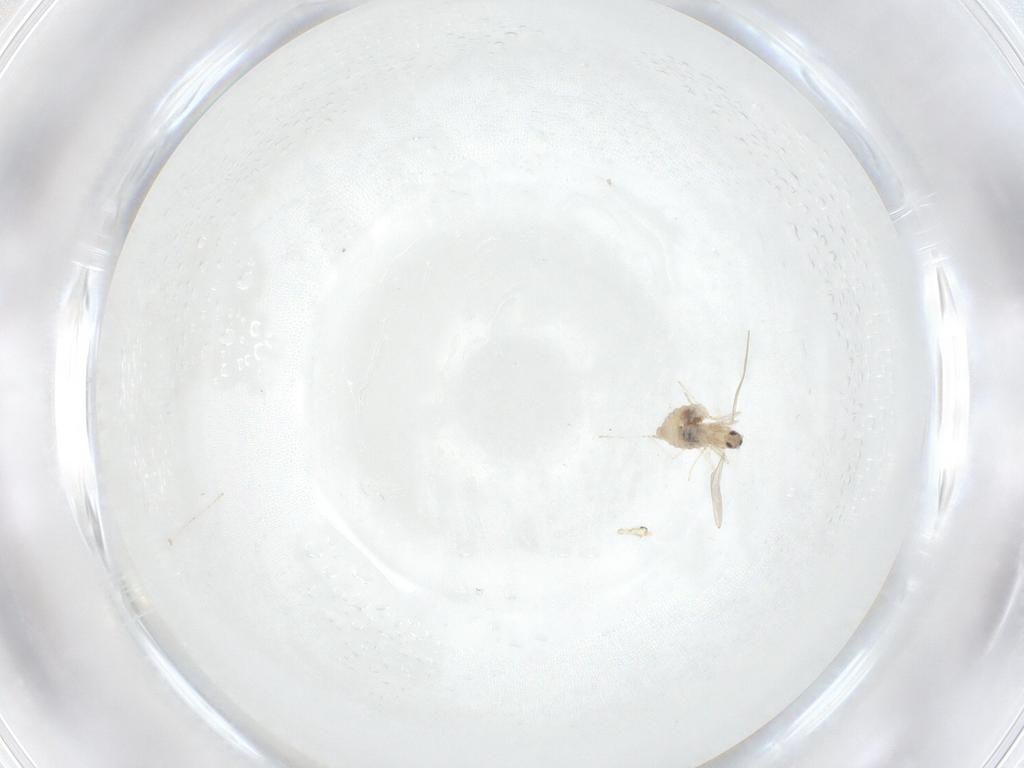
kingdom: Animalia
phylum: Arthropoda
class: Insecta
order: Diptera
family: Cecidomyiidae
